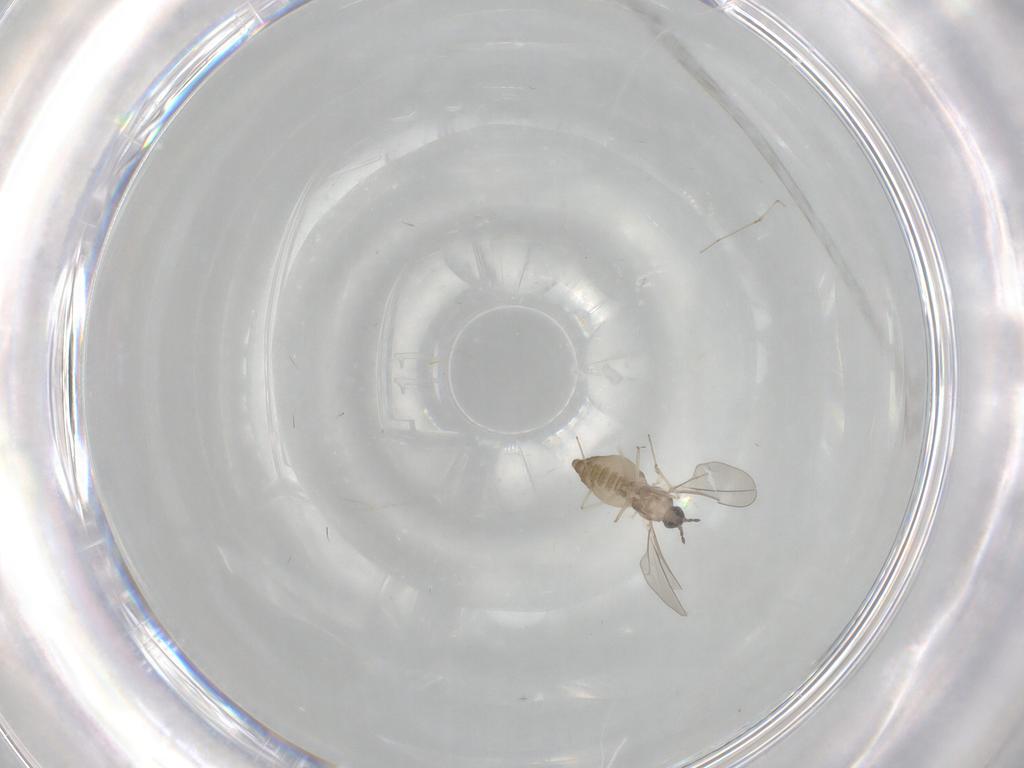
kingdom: Animalia
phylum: Arthropoda
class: Insecta
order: Diptera
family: Cecidomyiidae
